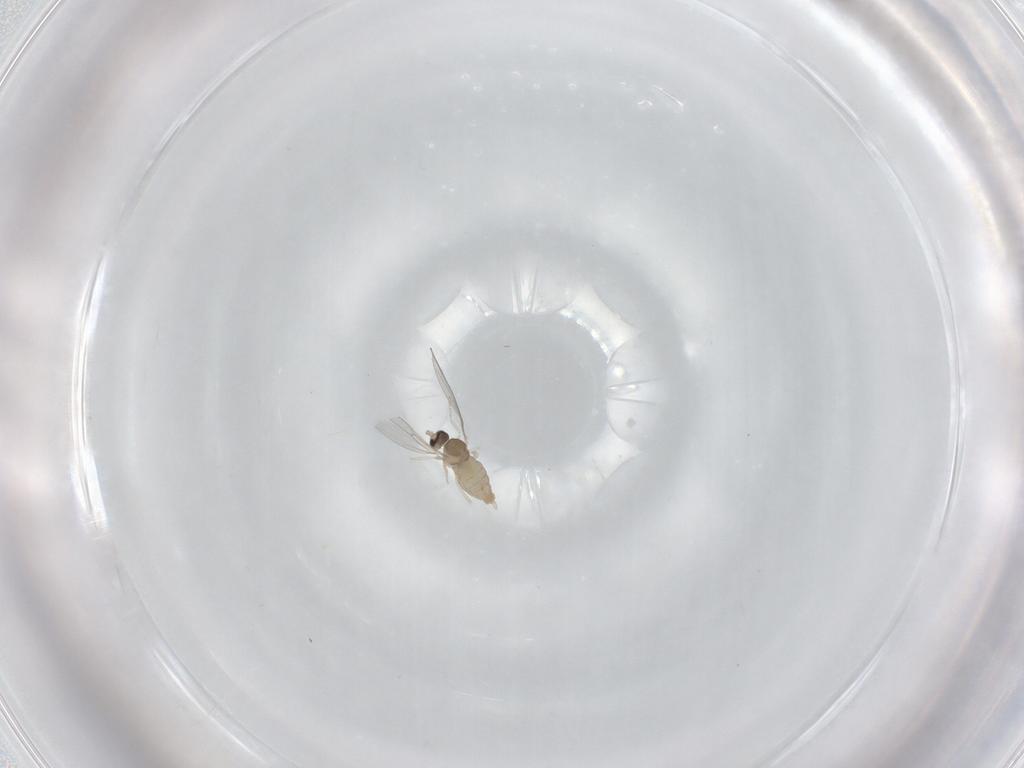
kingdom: Animalia
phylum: Arthropoda
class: Insecta
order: Diptera
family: Cecidomyiidae
